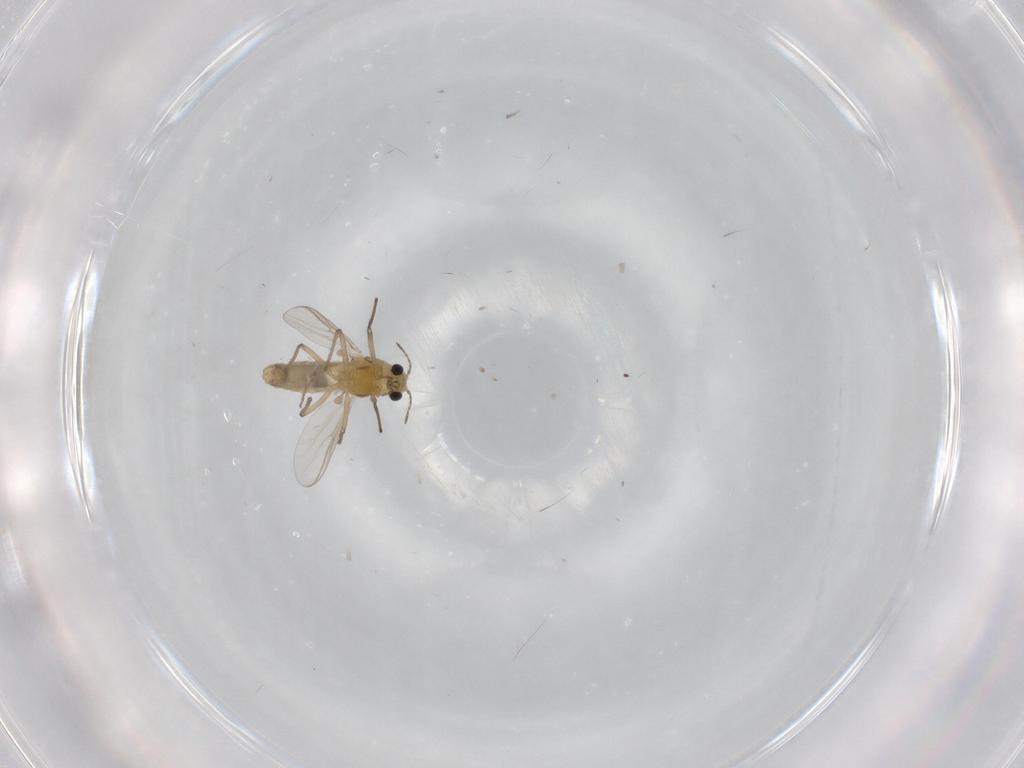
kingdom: Animalia
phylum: Arthropoda
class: Insecta
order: Diptera
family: Chironomidae
